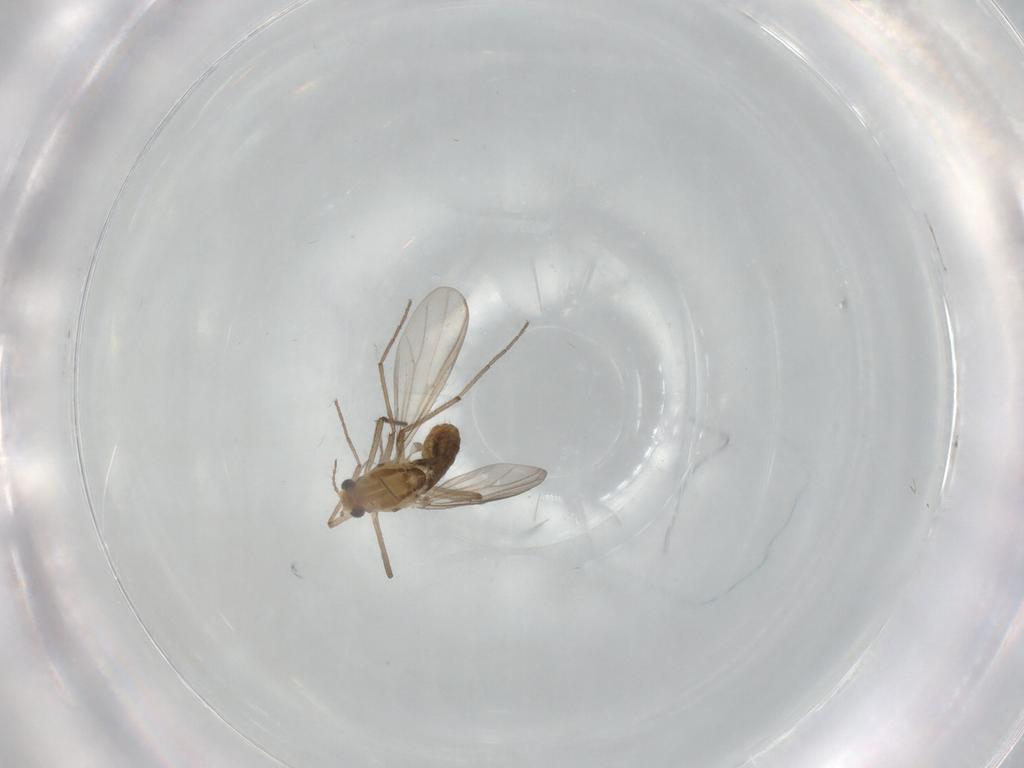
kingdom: Animalia
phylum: Arthropoda
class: Insecta
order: Diptera
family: Chironomidae
